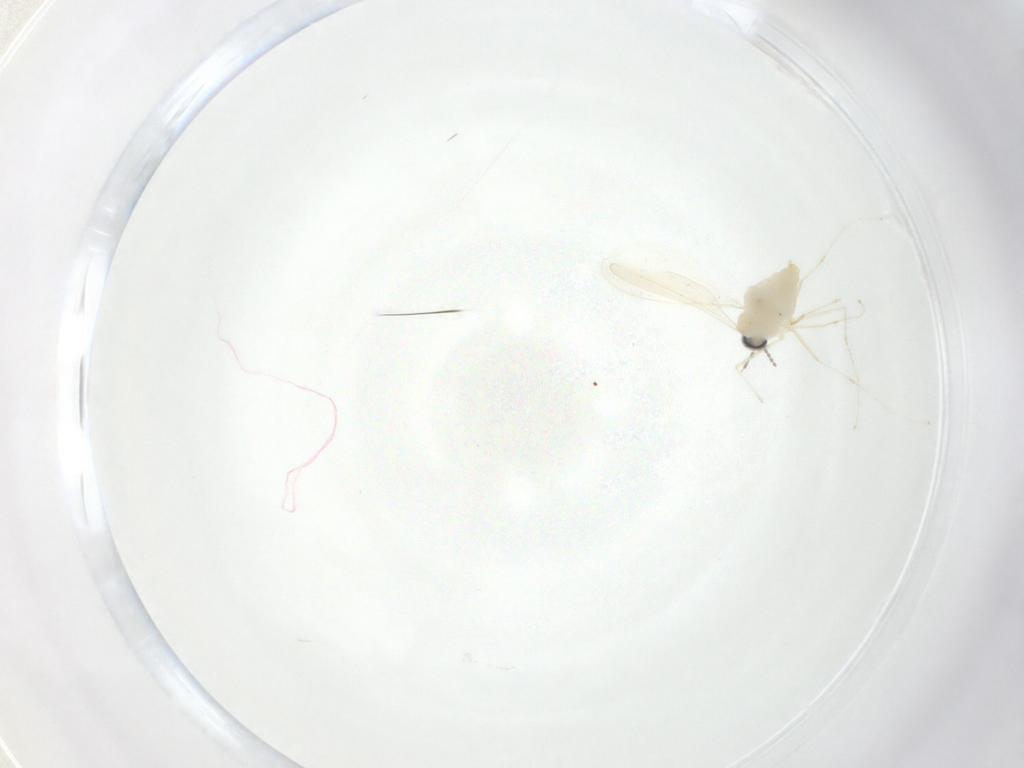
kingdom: Animalia
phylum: Arthropoda
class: Insecta
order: Diptera
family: Cecidomyiidae
